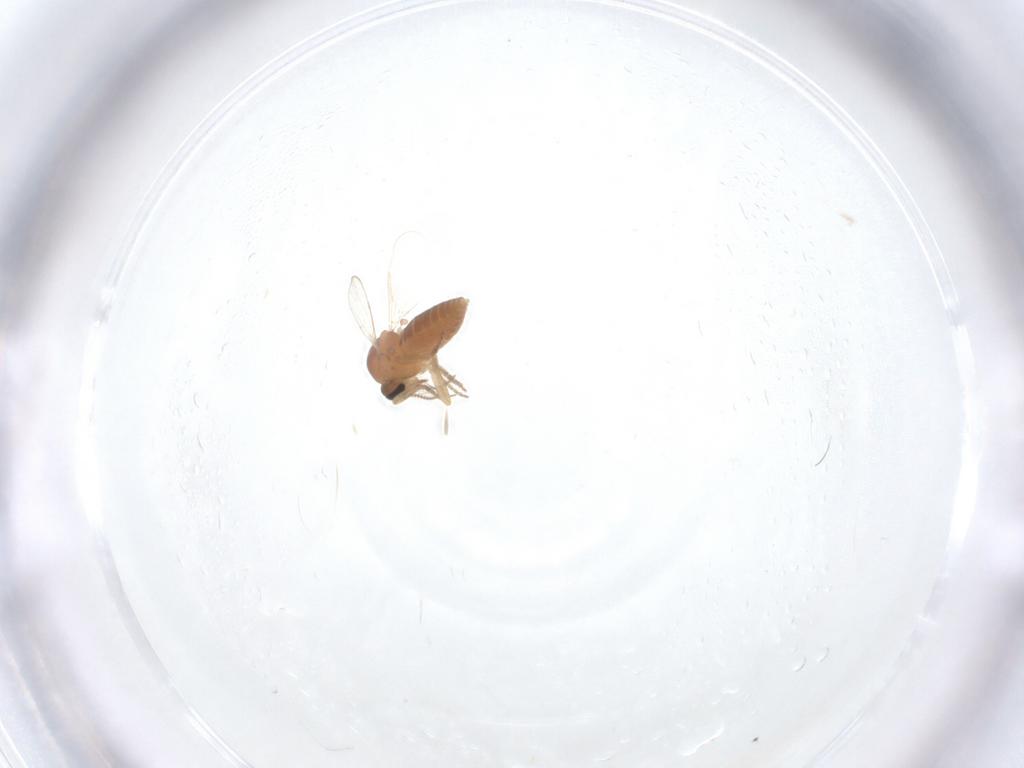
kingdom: Animalia
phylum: Arthropoda
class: Insecta
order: Diptera
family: Ceratopogonidae
